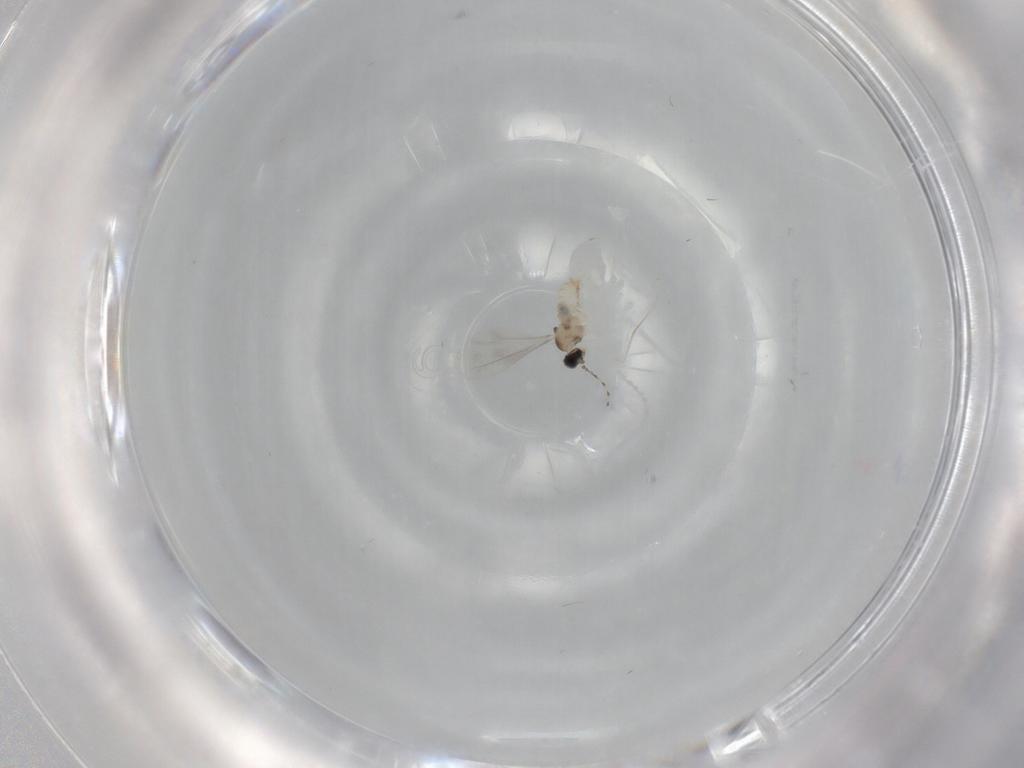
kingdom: Animalia
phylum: Arthropoda
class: Insecta
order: Diptera
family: Cecidomyiidae
